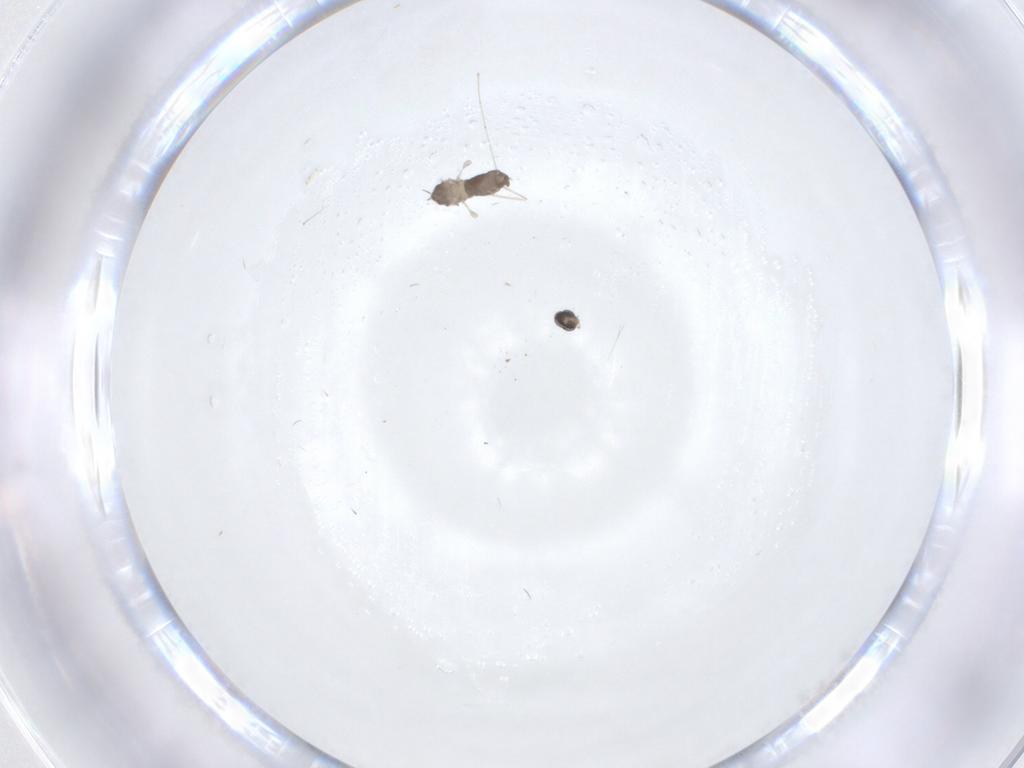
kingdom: Animalia
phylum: Arthropoda
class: Insecta
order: Diptera
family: Cecidomyiidae
